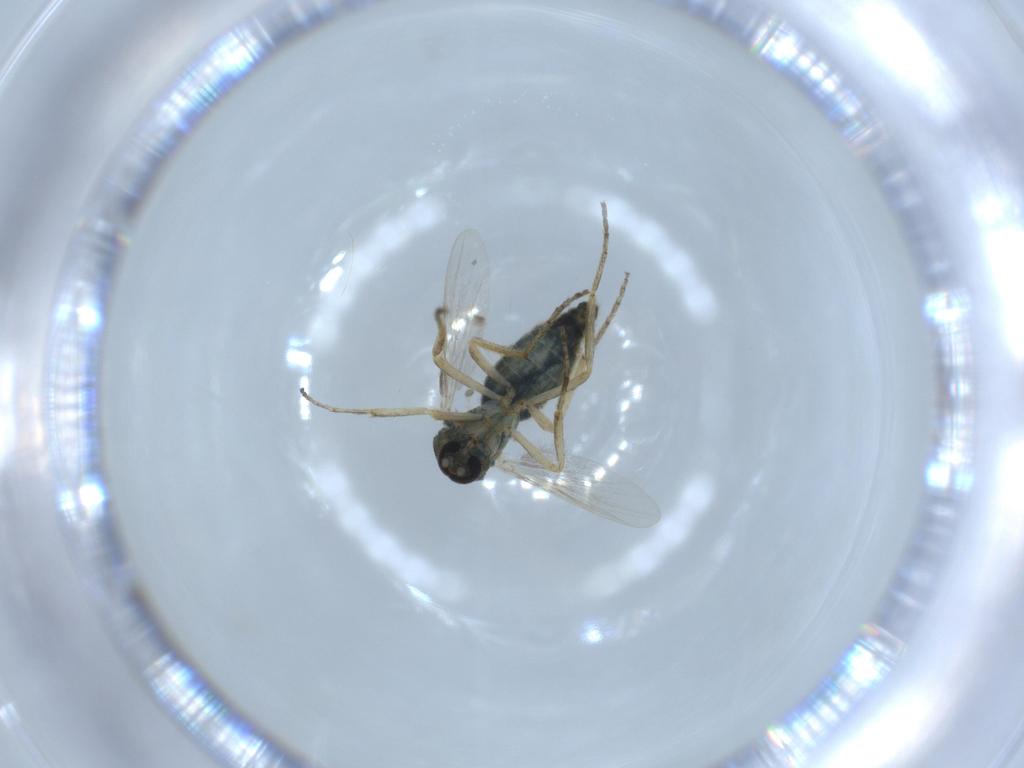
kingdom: Animalia
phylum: Arthropoda
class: Insecta
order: Diptera
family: Ceratopogonidae
